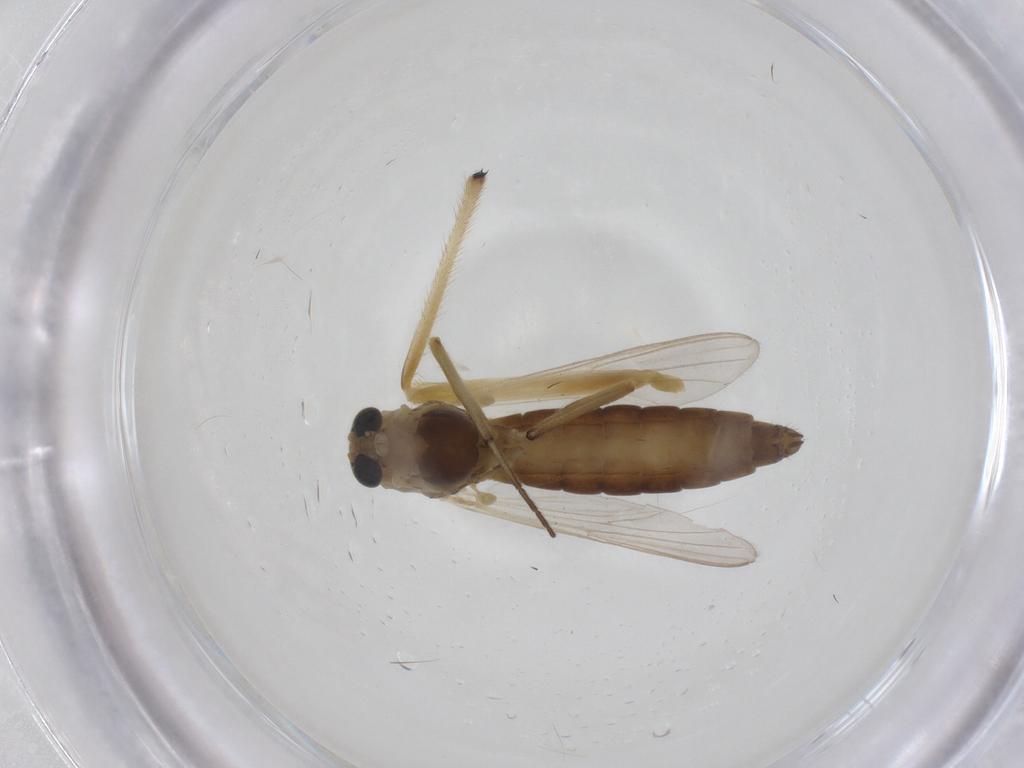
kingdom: Animalia
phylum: Arthropoda
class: Insecta
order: Diptera
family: Chironomidae
